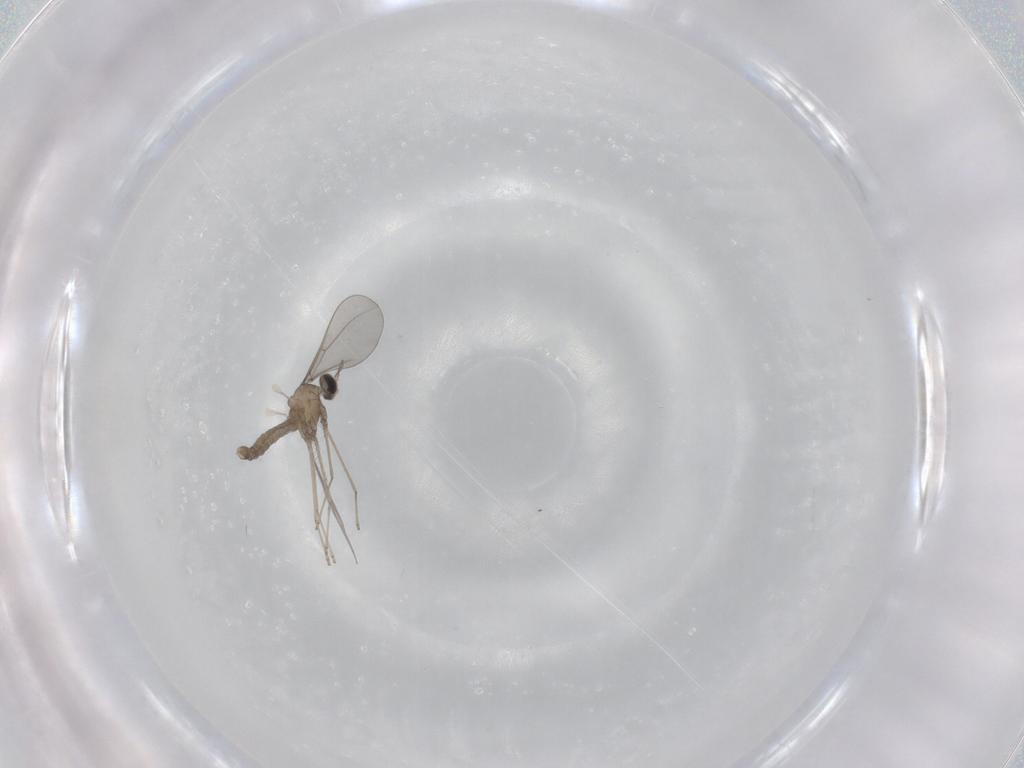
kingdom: Animalia
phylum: Arthropoda
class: Insecta
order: Diptera
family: Cecidomyiidae
